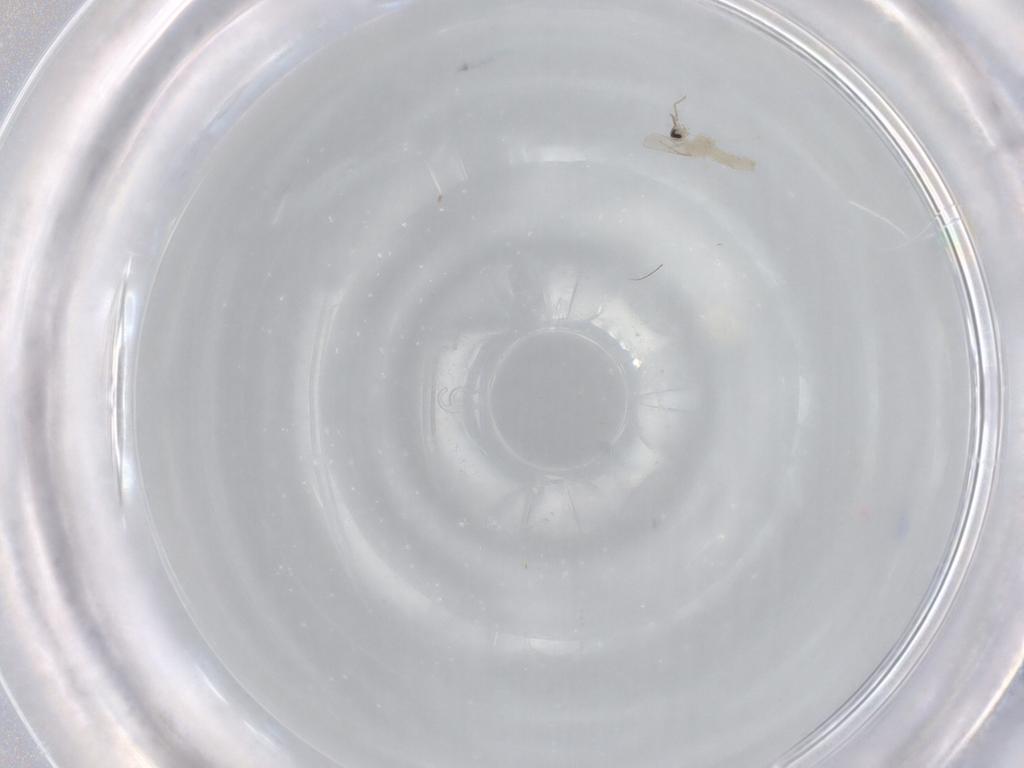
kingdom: Animalia
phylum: Arthropoda
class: Insecta
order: Diptera
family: Cecidomyiidae
